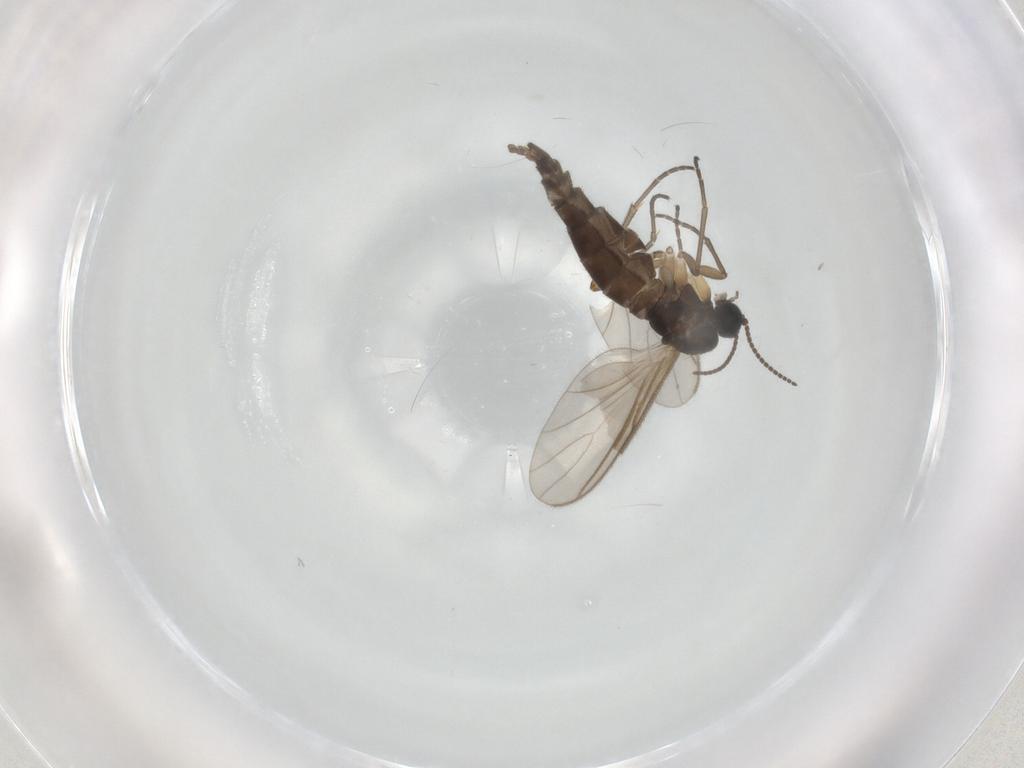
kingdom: Animalia
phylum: Arthropoda
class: Insecta
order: Diptera
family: Sciaridae
